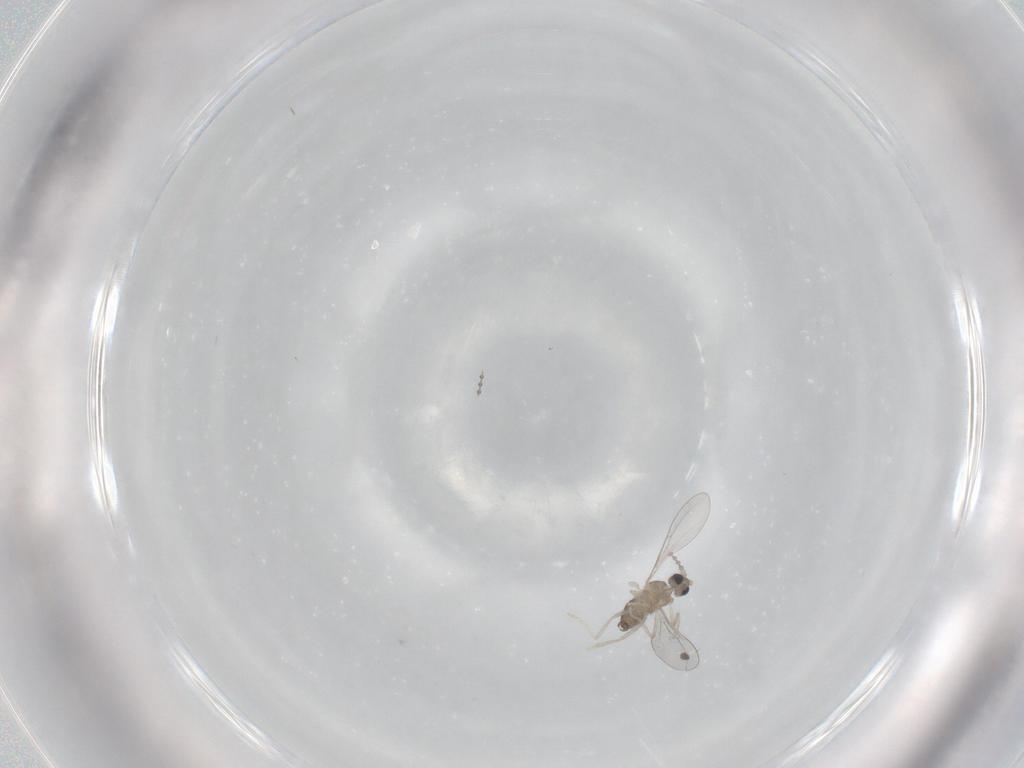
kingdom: Animalia
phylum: Arthropoda
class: Insecta
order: Diptera
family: Cecidomyiidae
